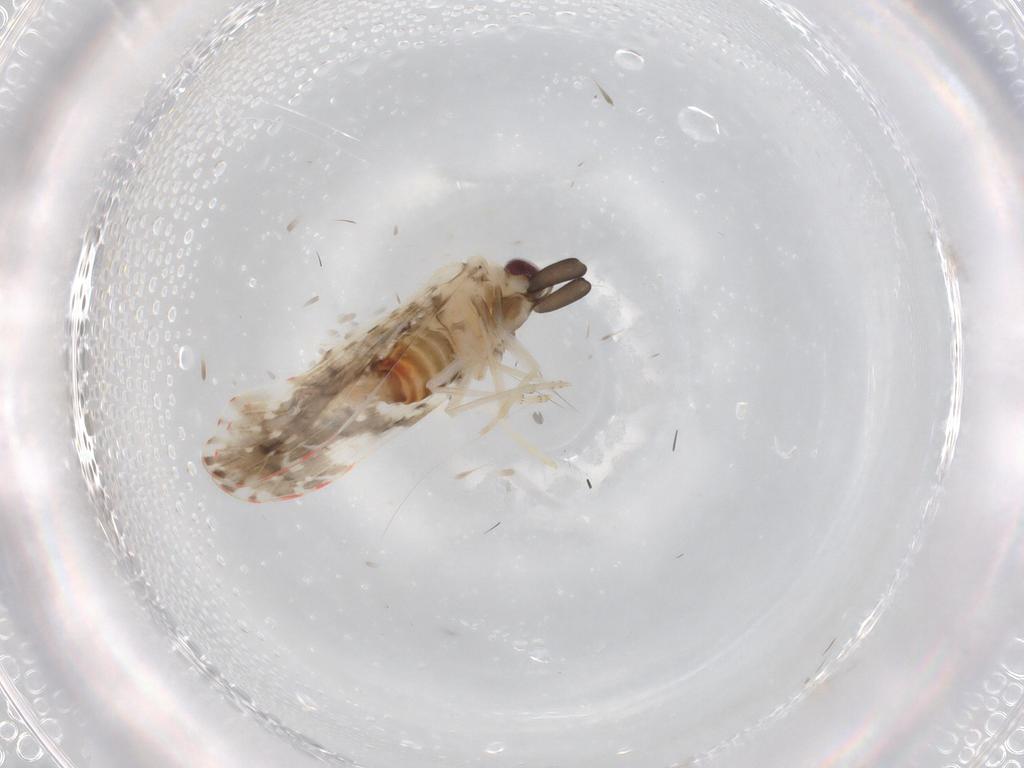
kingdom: Animalia
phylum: Arthropoda
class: Insecta
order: Hemiptera
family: Derbidae
